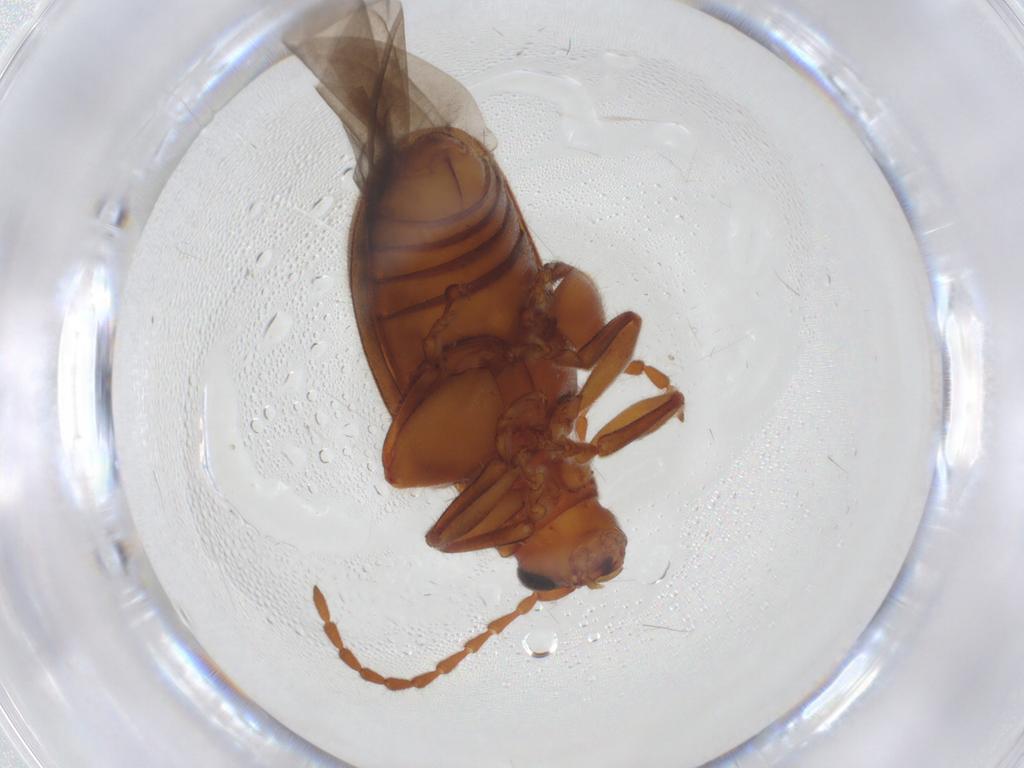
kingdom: Animalia
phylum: Arthropoda
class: Insecta
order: Coleoptera
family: Chrysomelidae
